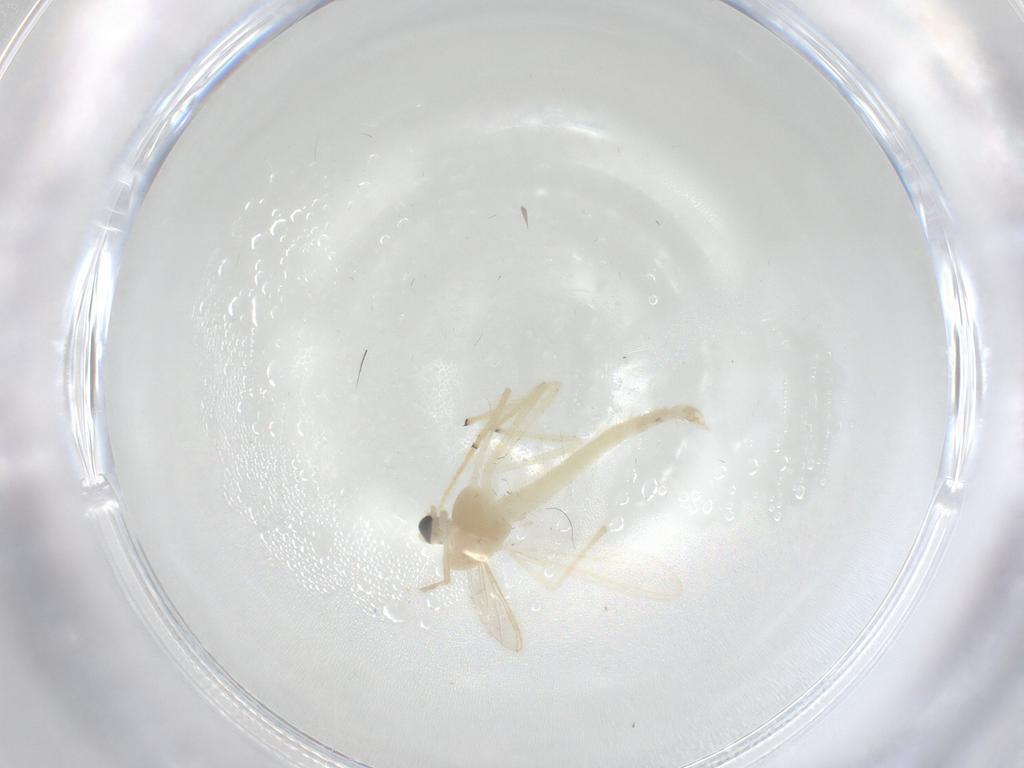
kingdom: Animalia
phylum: Arthropoda
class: Insecta
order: Diptera
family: Chironomidae
